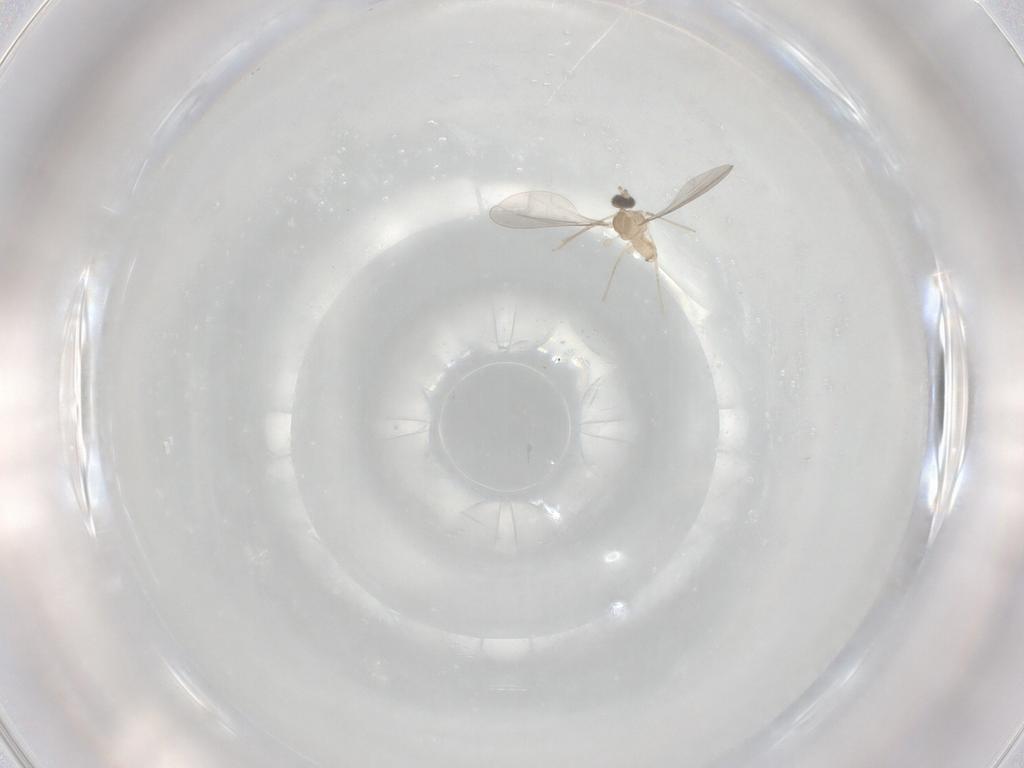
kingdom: Animalia
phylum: Arthropoda
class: Insecta
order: Diptera
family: Cecidomyiidae
